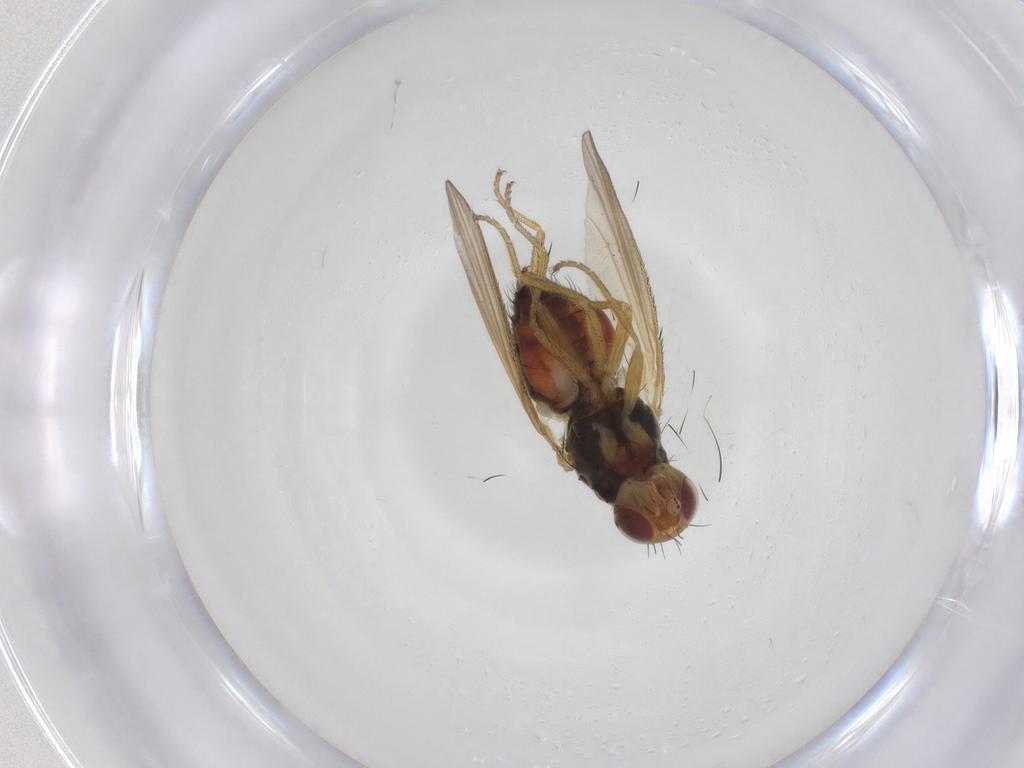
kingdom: Animalia
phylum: Arthropoda
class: Insecta
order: Diptera
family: Heleomyzidae
